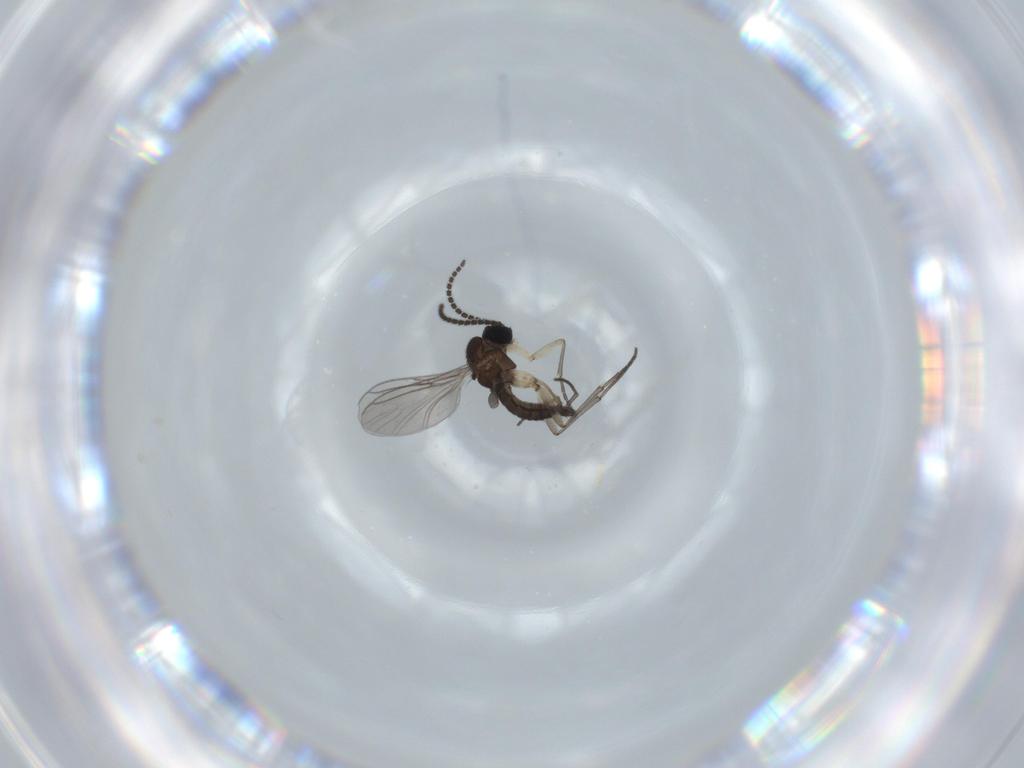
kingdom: Animalia
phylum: Arthropoda
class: Insecta
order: Diptera
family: Sciaridae
